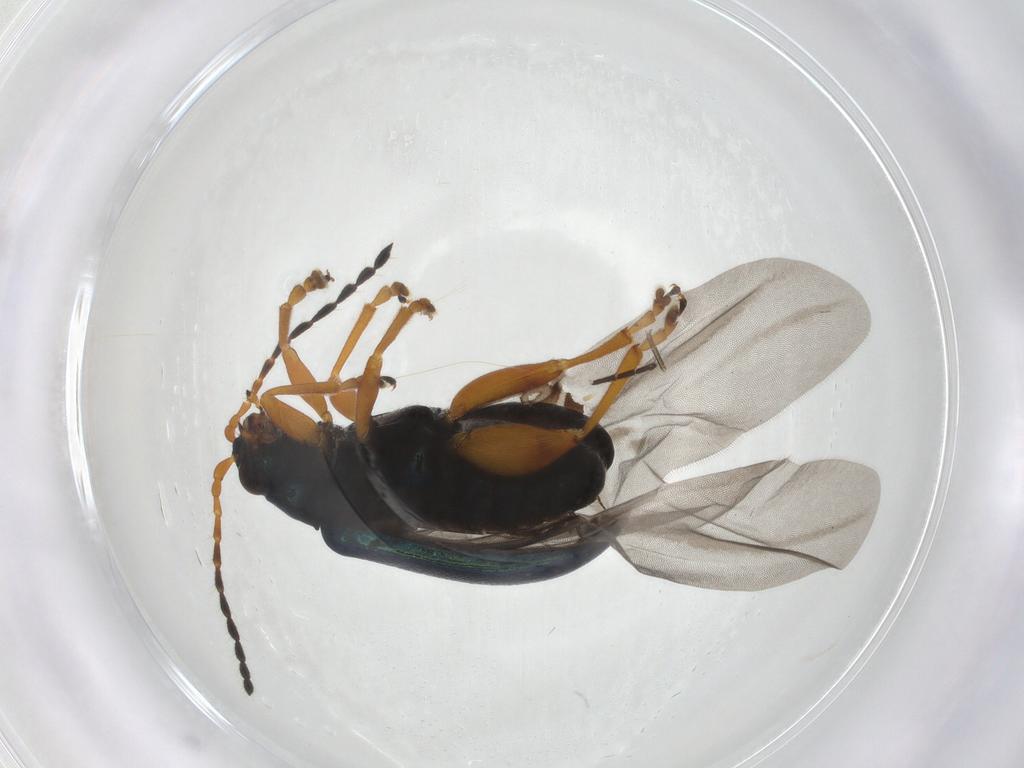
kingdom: Animalia
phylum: Arthropoda
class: Insecta
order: Coleoptera
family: Chrysomelidae
